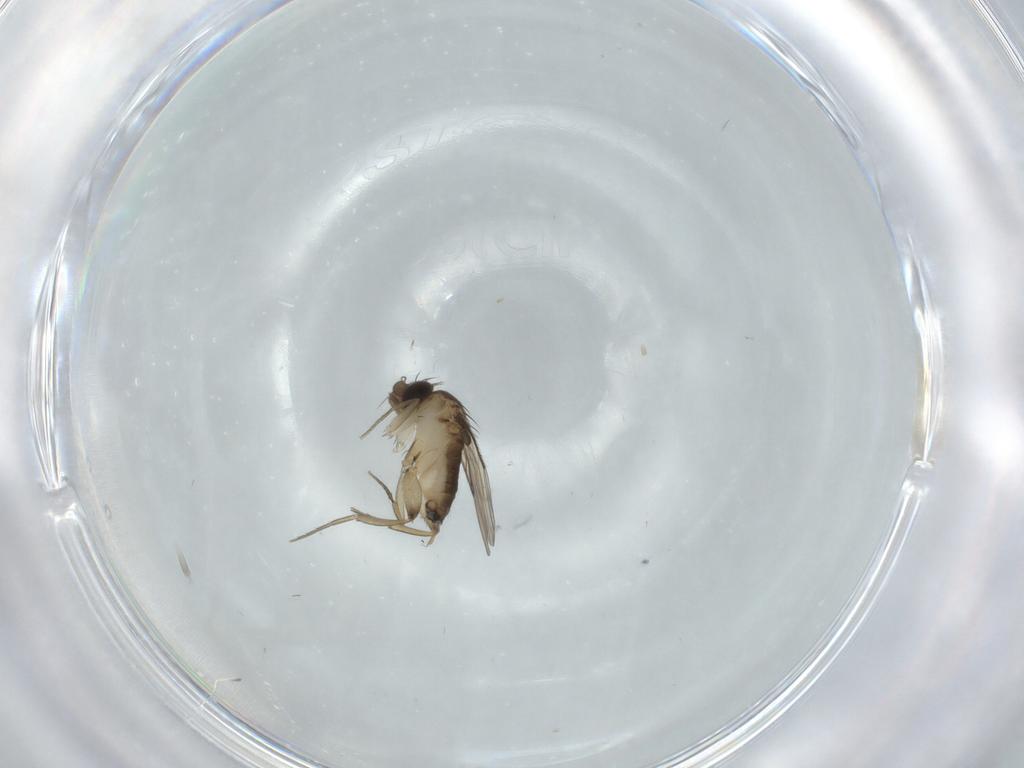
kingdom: Animalia
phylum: Arthropoda
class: Insecta
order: Diptera
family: Phoridae
